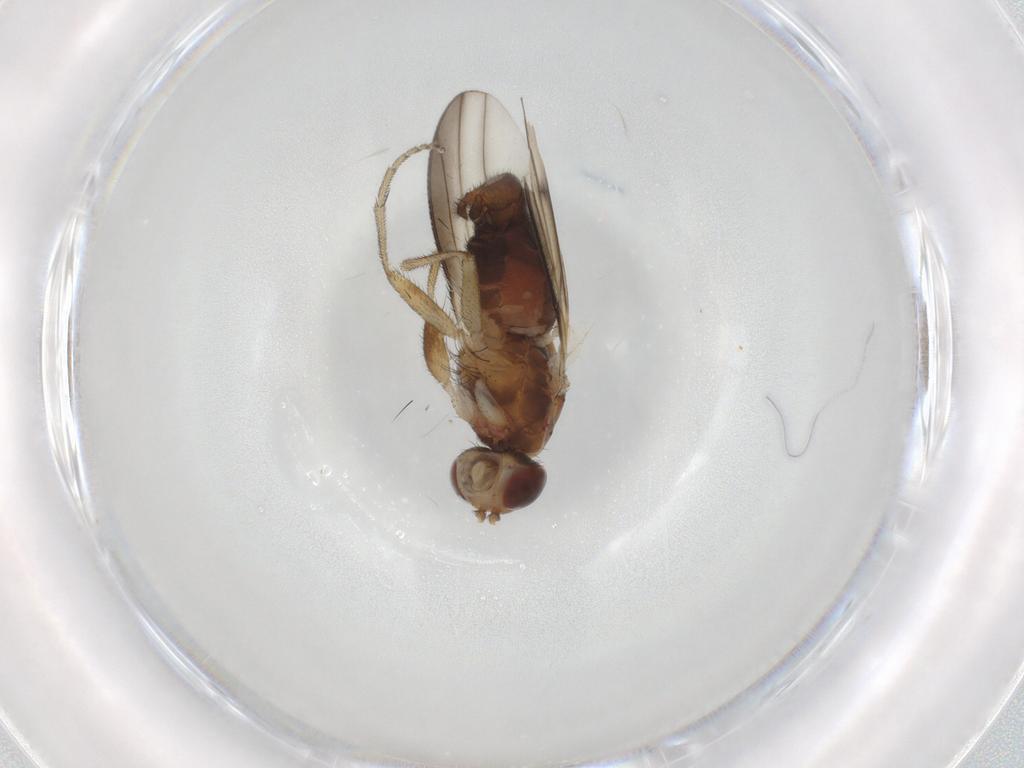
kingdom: Animalia
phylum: Arthropoda
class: Insecta
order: Diptera
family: Heleomyzidae
